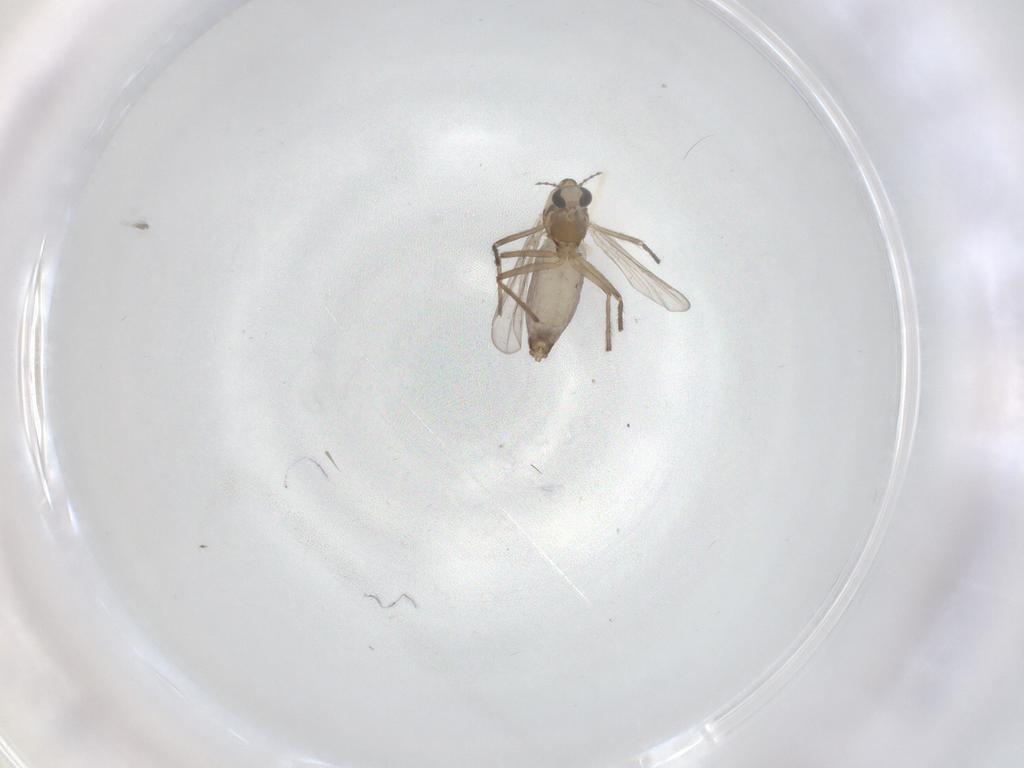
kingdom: Animalia
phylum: Arthropoda
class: Insecta
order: Diptera
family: Chironomidae
